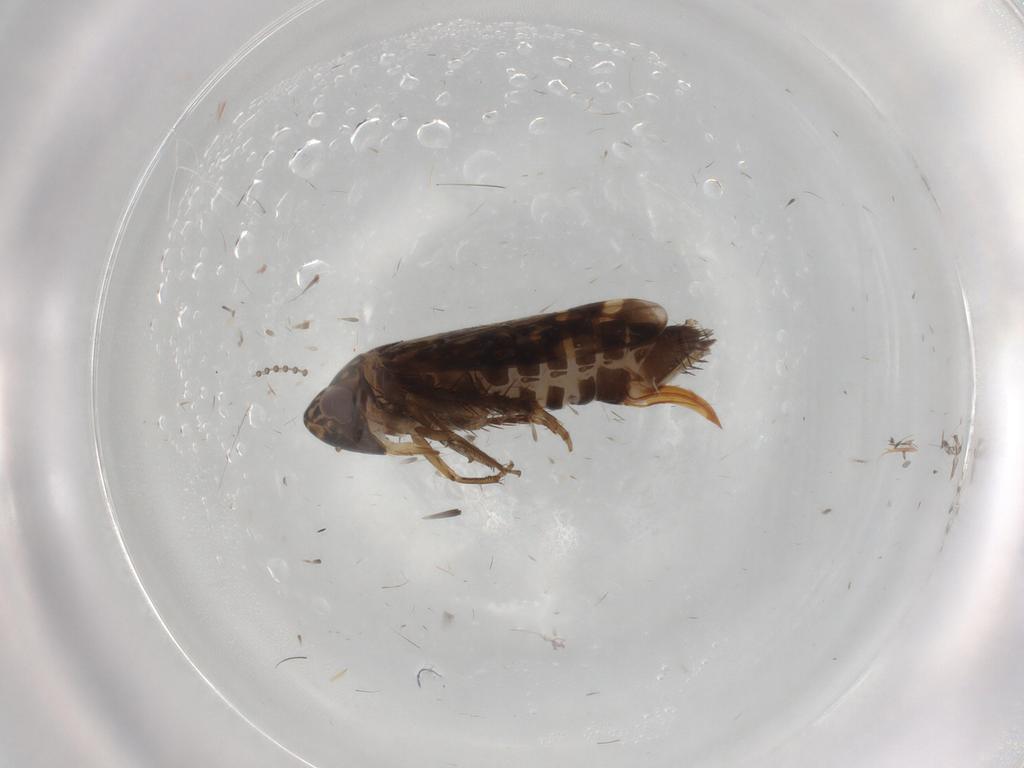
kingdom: Animalia
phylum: Arthropoda
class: Insecta
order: Hemiptera
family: Cicadellidae
